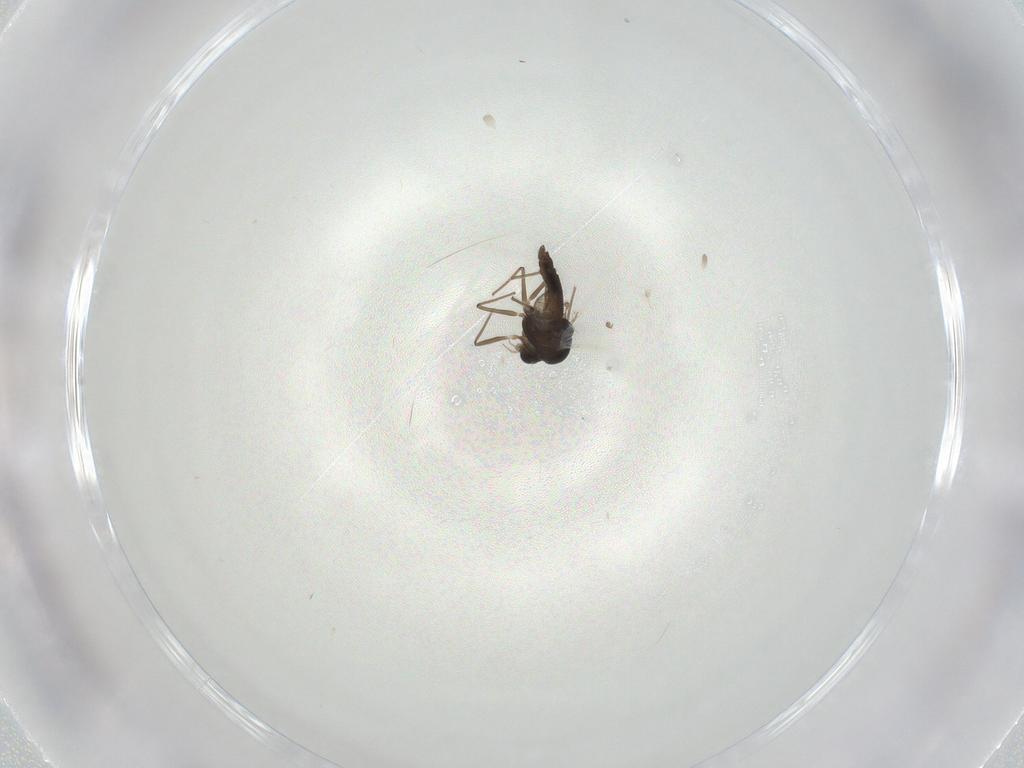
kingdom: Animalia
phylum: Arthropoda
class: Insecta
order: Diptera
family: Chironomidae
